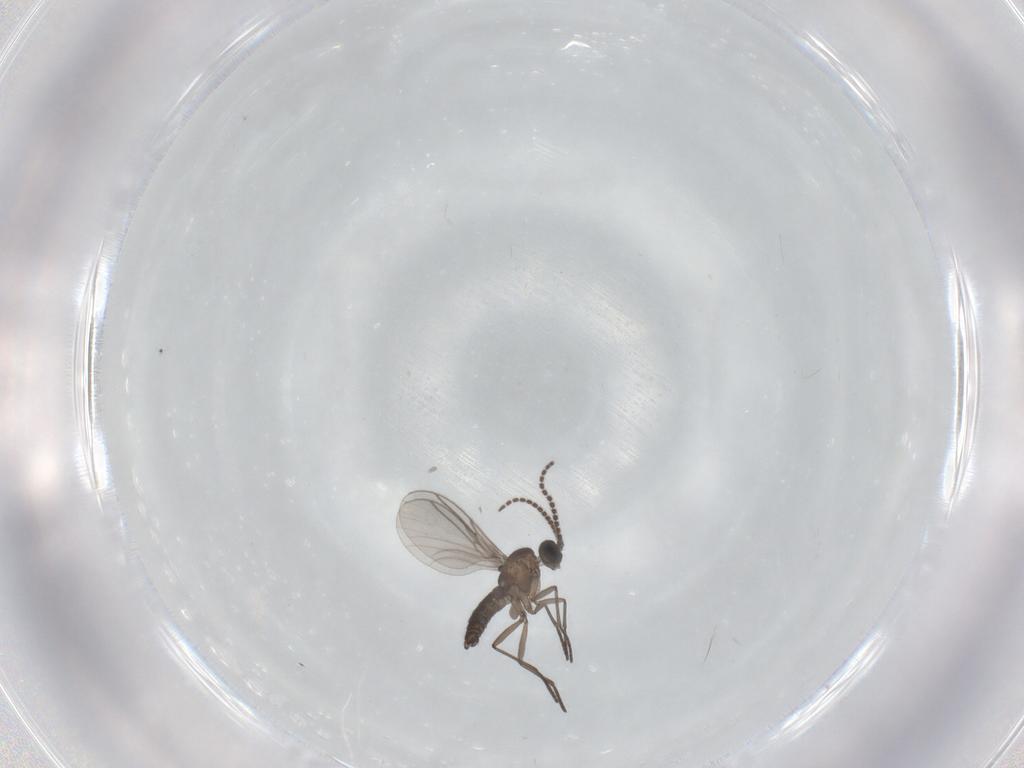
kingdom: Animalia
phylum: Arthropoda
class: Insecta
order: Diptera
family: Sphaeroceridae
